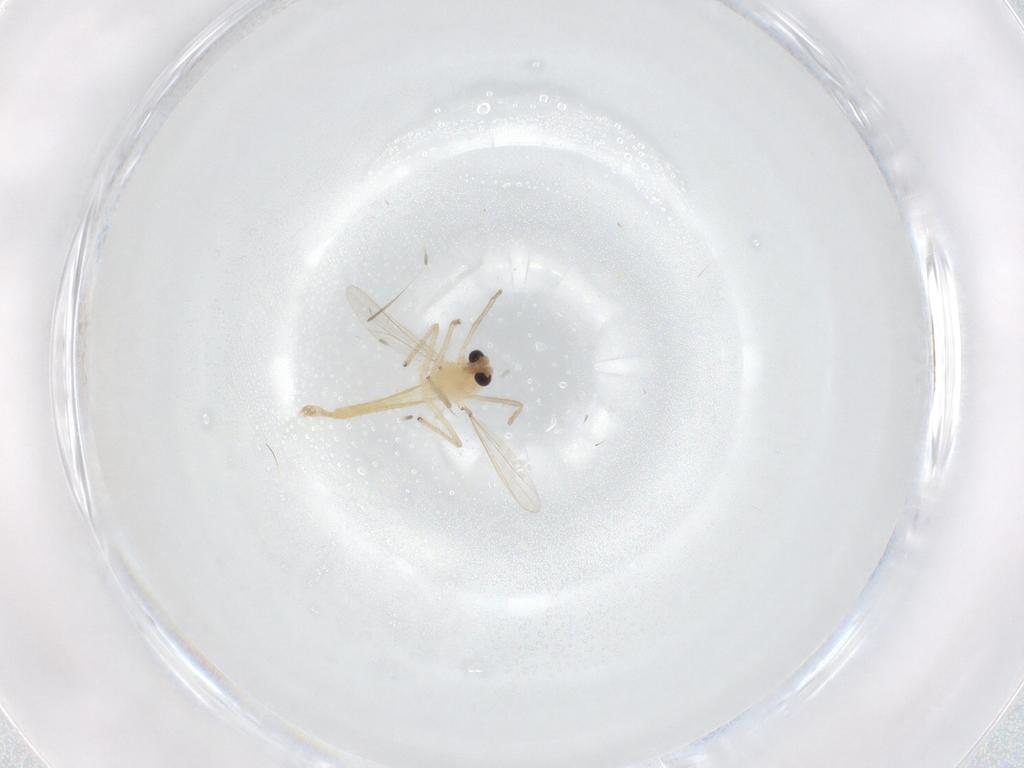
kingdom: Animalia
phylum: Arthropoda
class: Insecta
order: Diptera
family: Chironomidae
